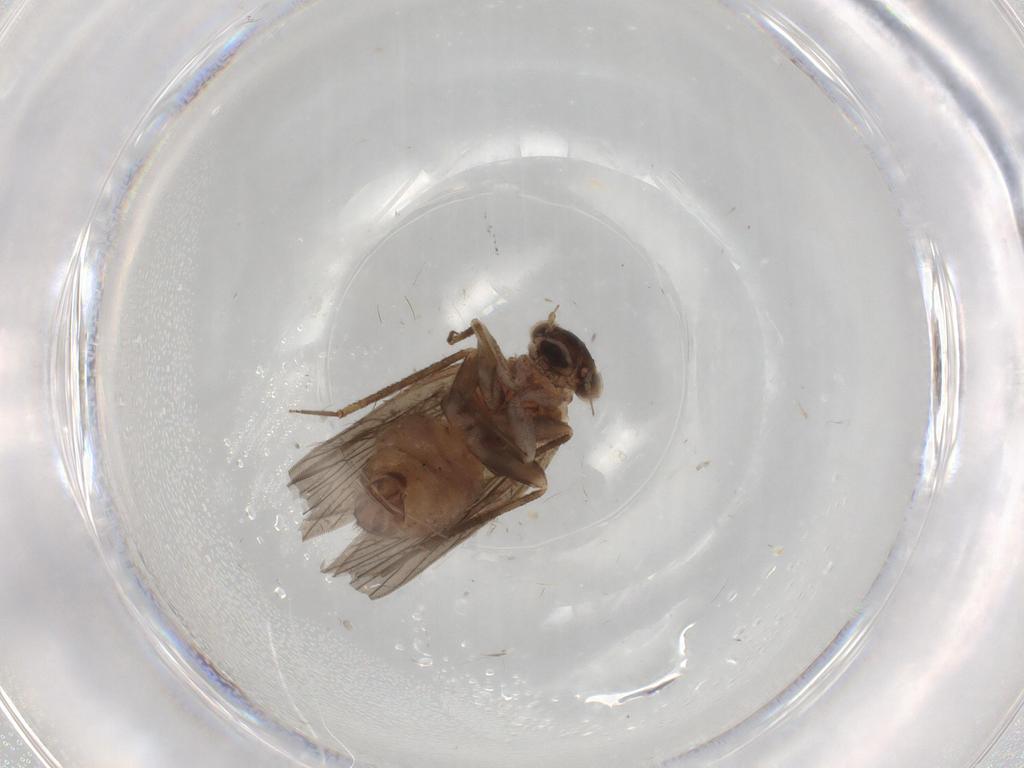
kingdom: Animalia
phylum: Arthropoda
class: Insecta
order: Psocodea
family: Lepidopsocidae
